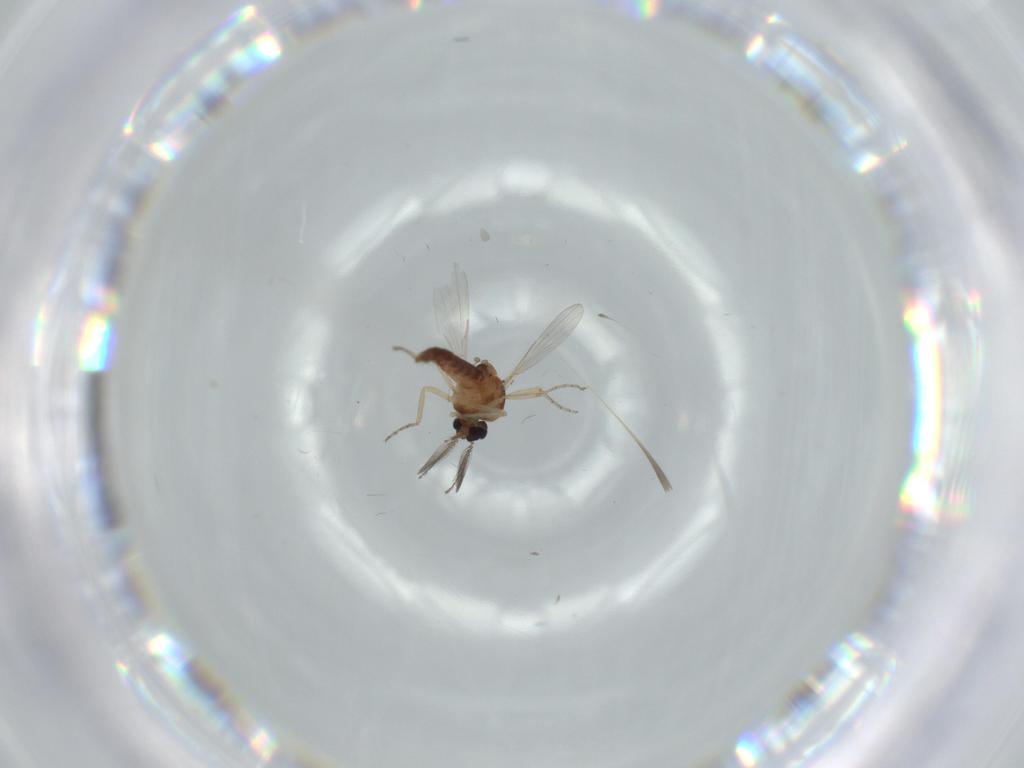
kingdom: Animalia
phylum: Arthropoda
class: Insecta
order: Diptera
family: Ceratopogonidae
